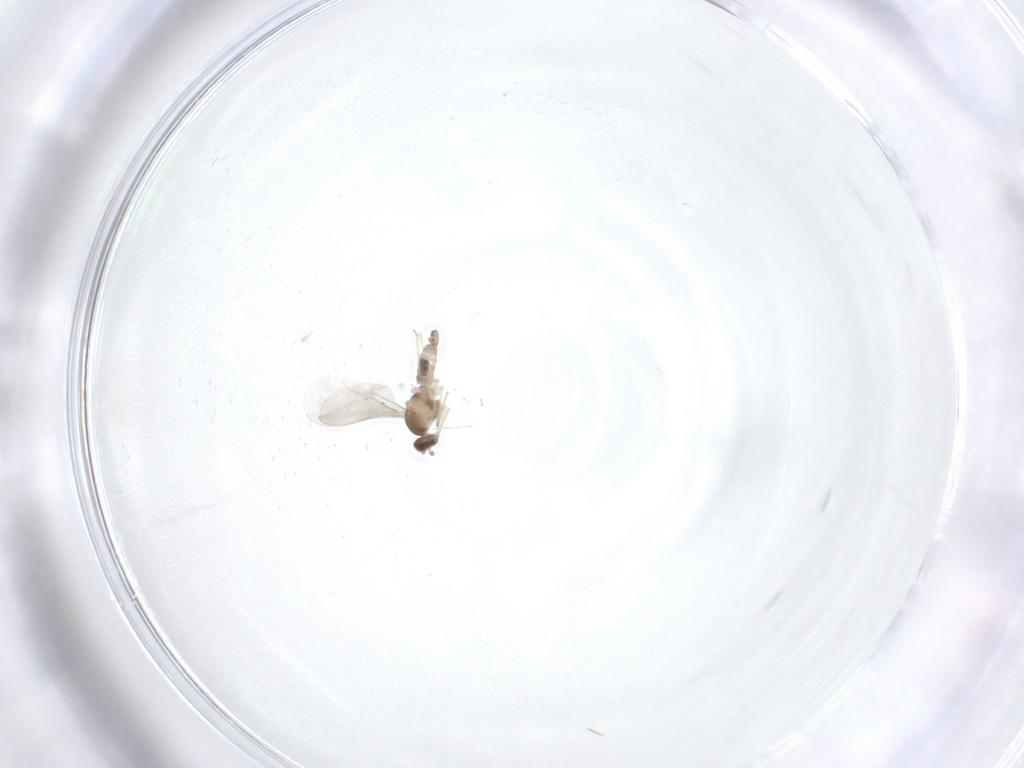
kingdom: Animalia
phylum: Arthropoda
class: Insecta
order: Diptera
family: Cecidomyiidae
